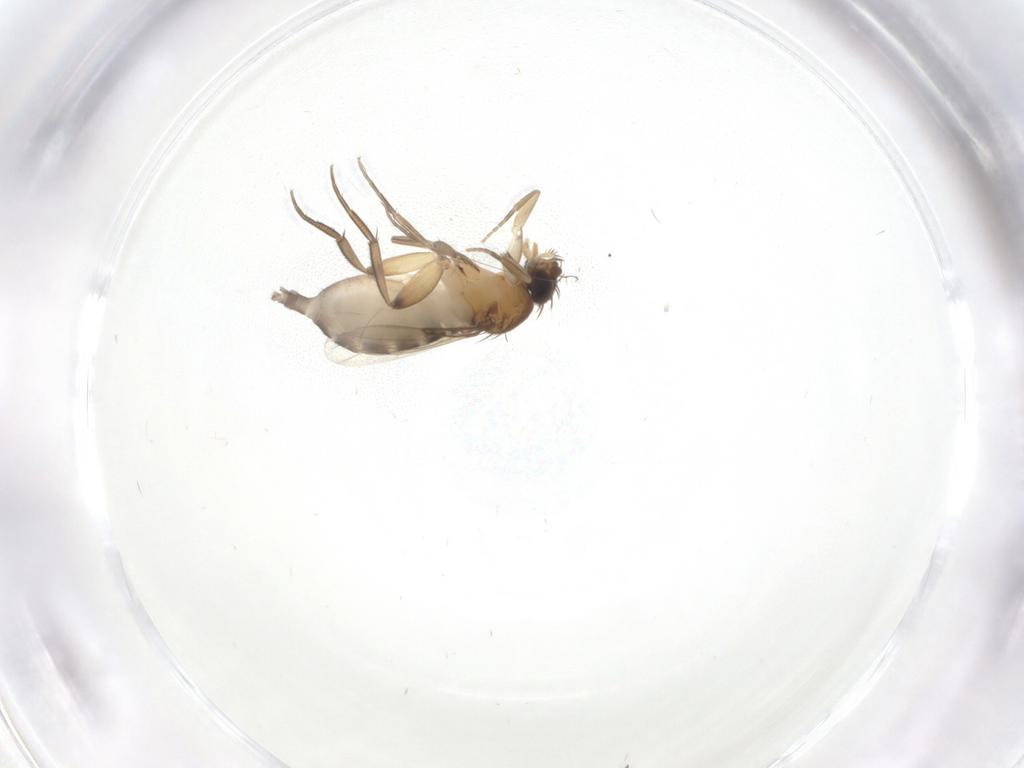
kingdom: Animalia
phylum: Arthropoda
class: Insecta
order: Diptera
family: Phoridae
